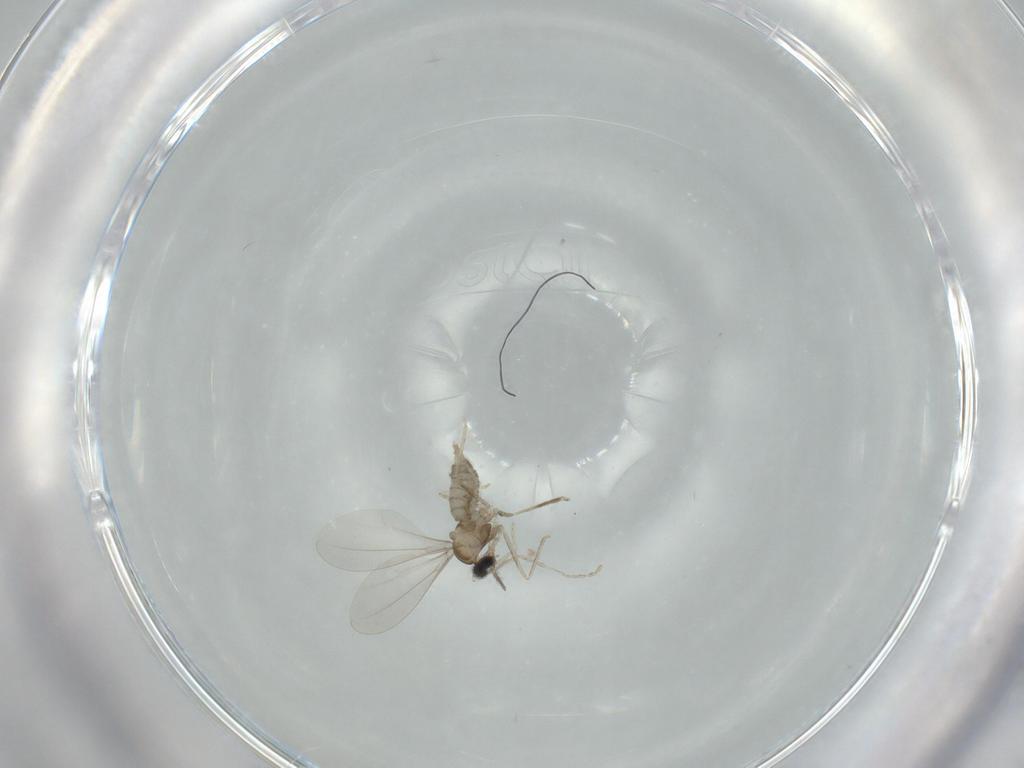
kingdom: Animalia
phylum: Arthropoda
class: Insecta
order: Diptera
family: Cecidomyiidae
